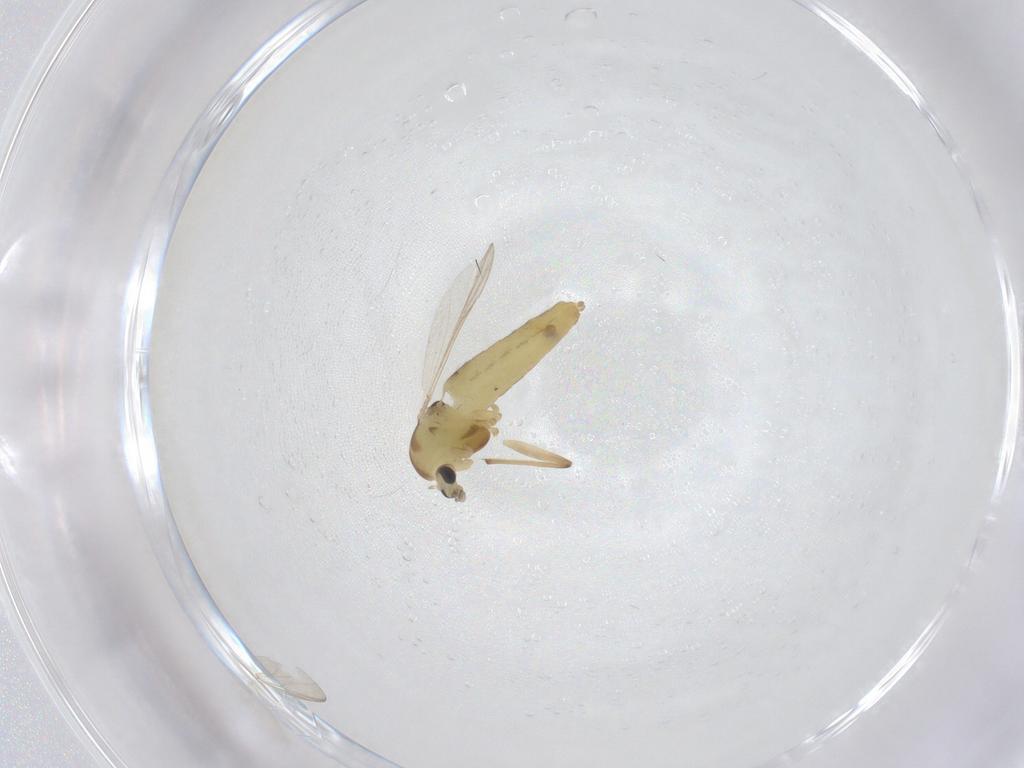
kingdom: Animalia
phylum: Arthropoda
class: Insecta
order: Diptera
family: Chironomidae
